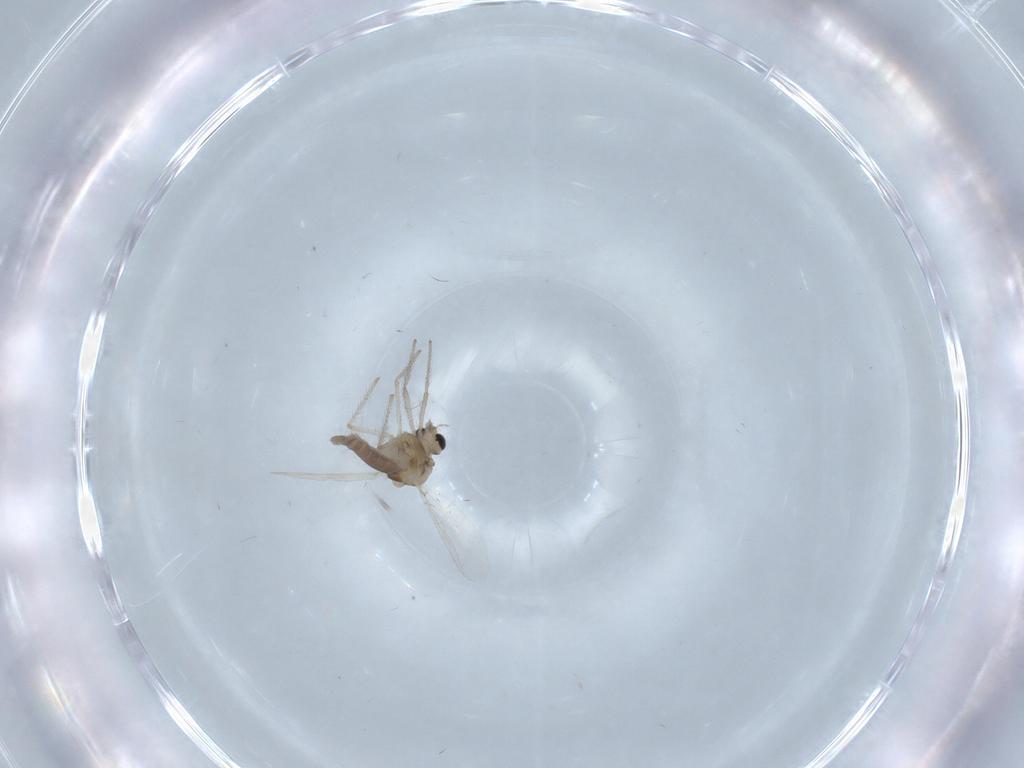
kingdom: Animalia
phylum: Arthropoda
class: Insecta
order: Diptera
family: Chironomidae
